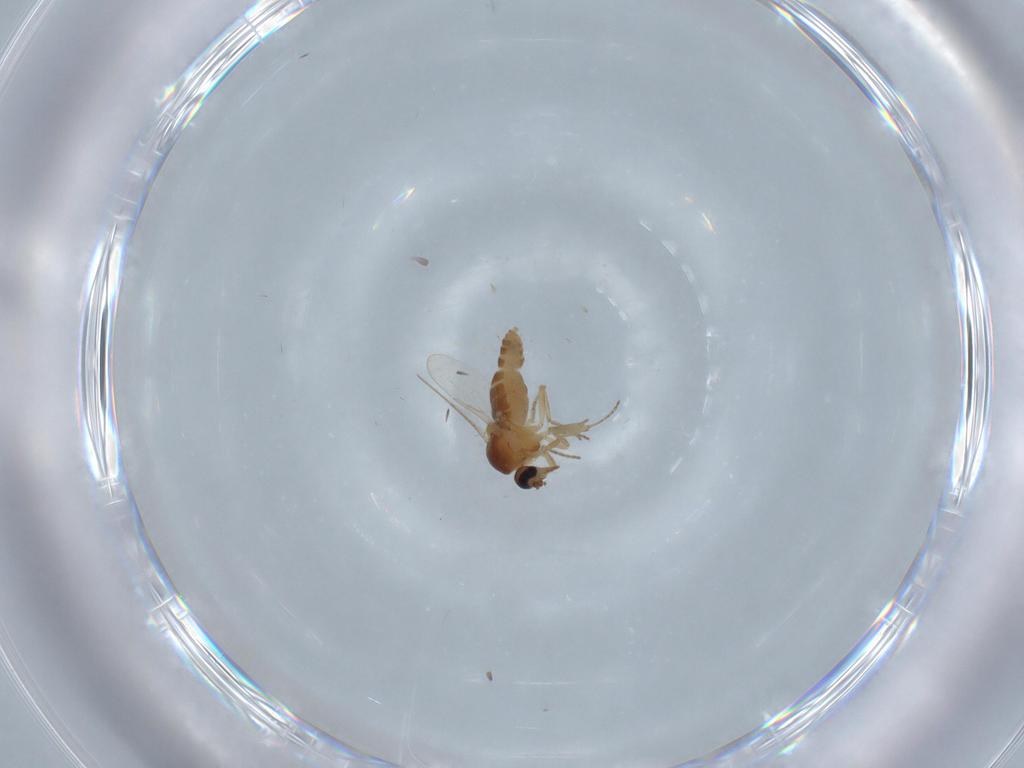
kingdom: Animalia
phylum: Arthropoda
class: Insecta
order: Diptera
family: Ceratopogonidae
